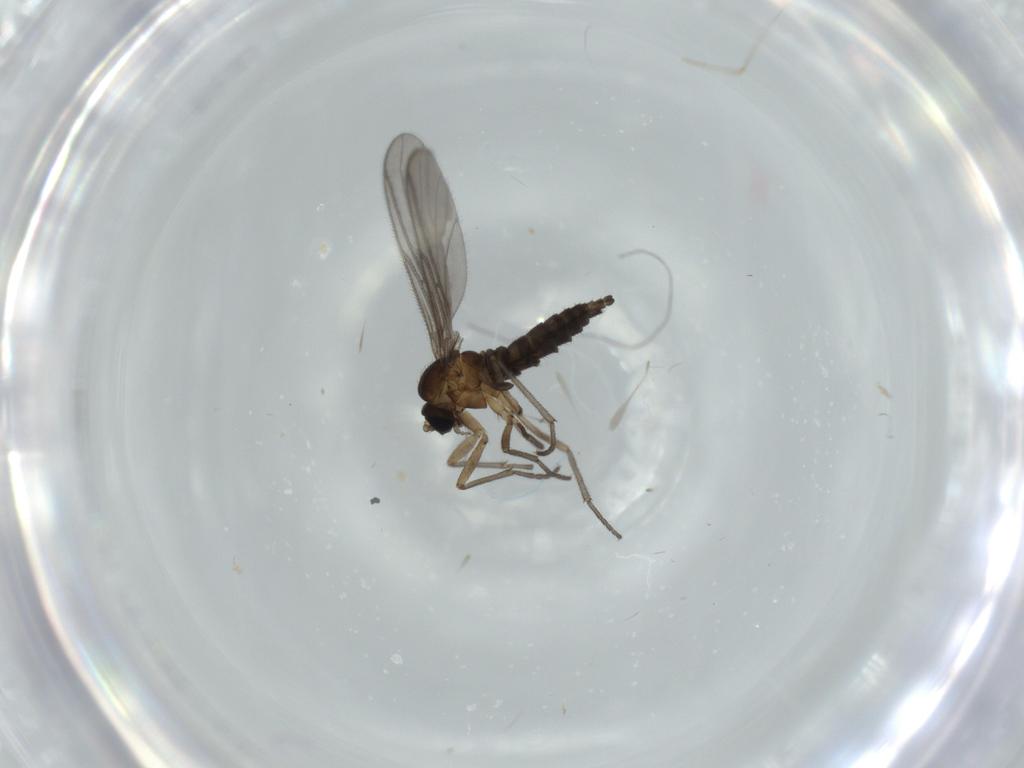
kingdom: Animalia
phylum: Arthropoda
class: Insecta
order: Diptera
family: Sciaridae
